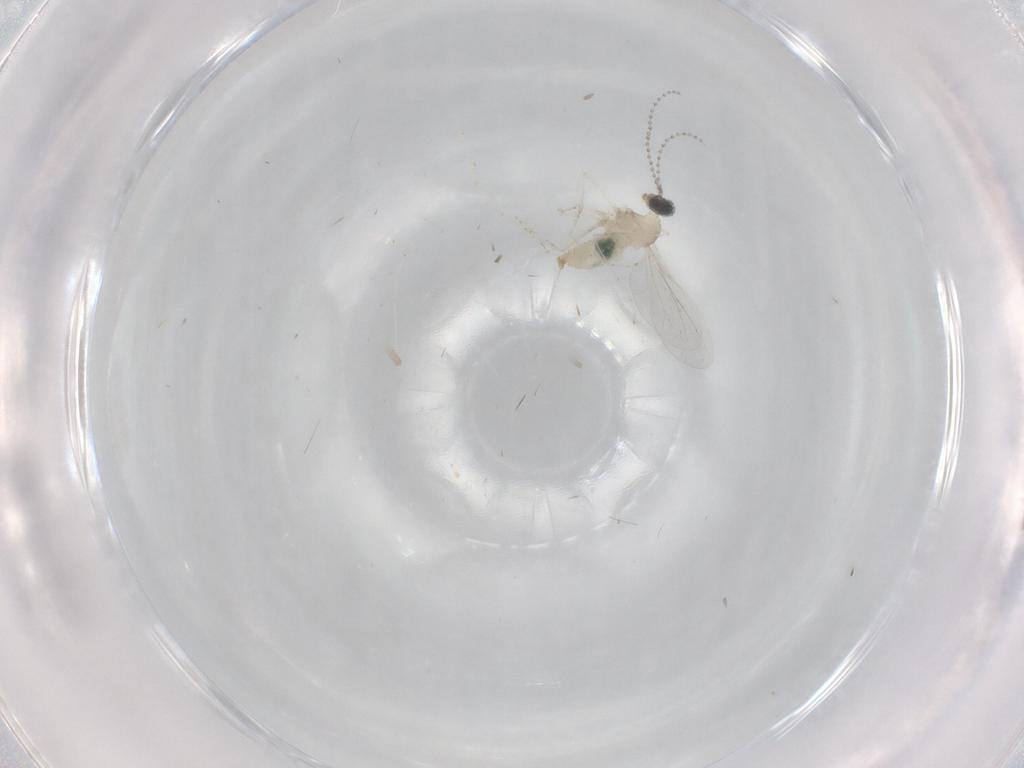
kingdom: Animalia
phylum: Arthropoda
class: Insecta
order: Diptera
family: Cecidomyiidae
